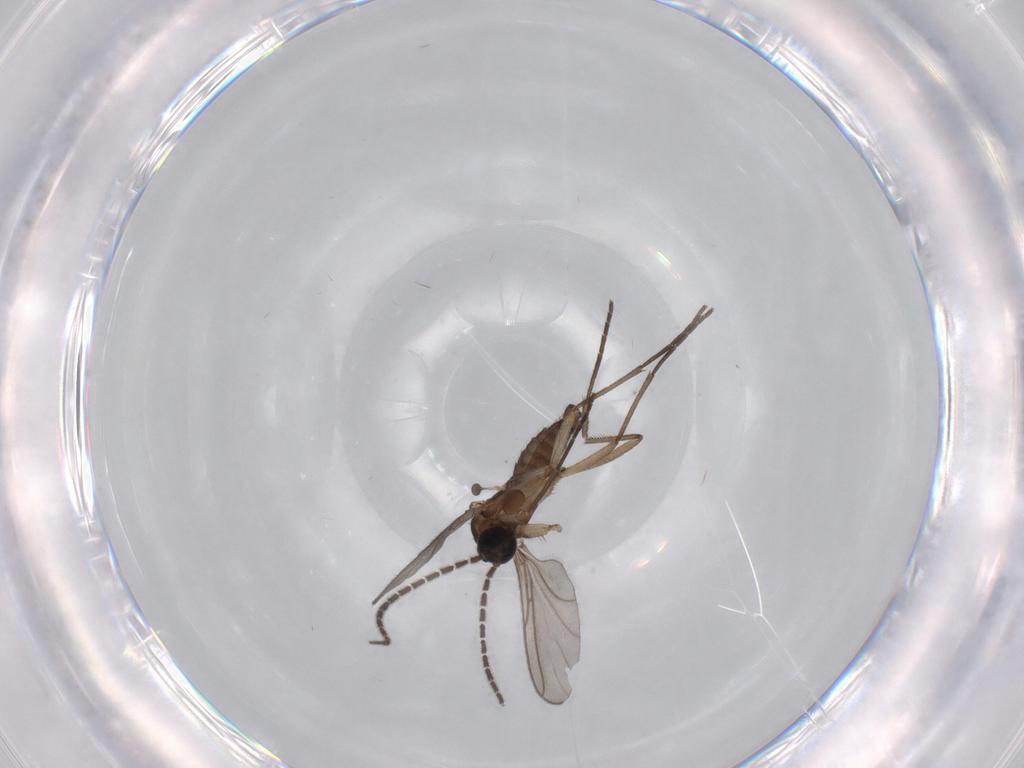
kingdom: Animalia
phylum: Arthropoda
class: Insecta
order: Diptera
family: Sciaridae
